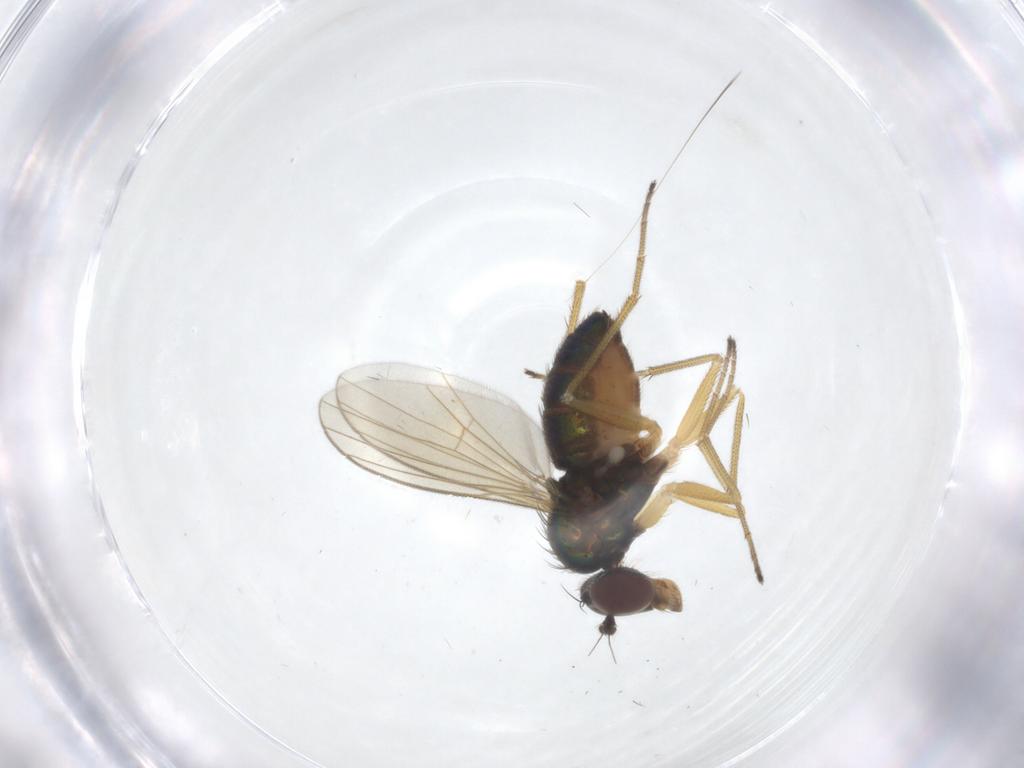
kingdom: Animalia
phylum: Arthropoda
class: Insecta
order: Diptera
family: Dolichopodidae
